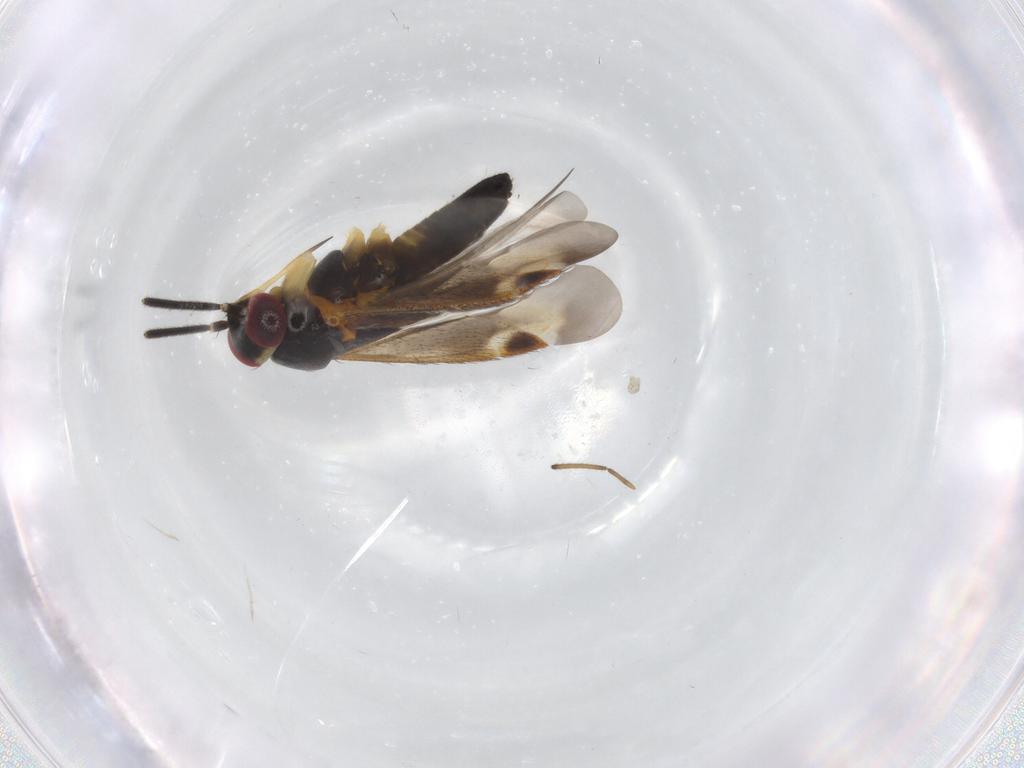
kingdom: Animalia
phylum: Arthropoda
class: Insecta
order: Hemiptera
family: Miridae
